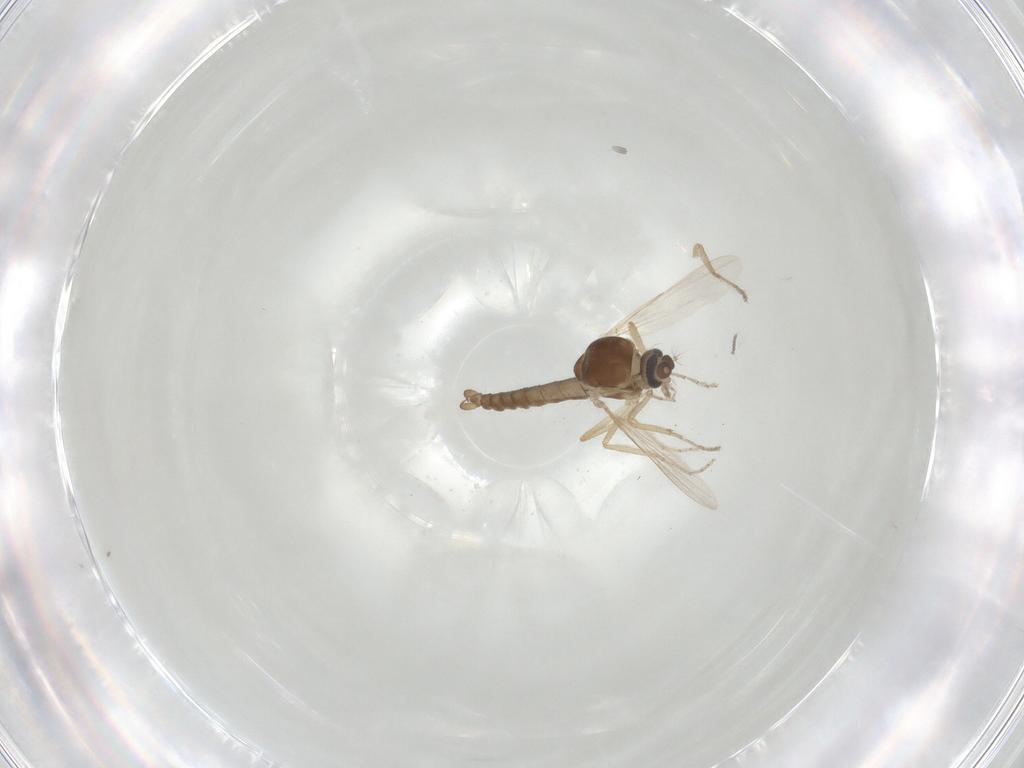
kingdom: Animalia
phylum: Arthropoda
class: Insecta
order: Diptera
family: Ceratopogonidae
